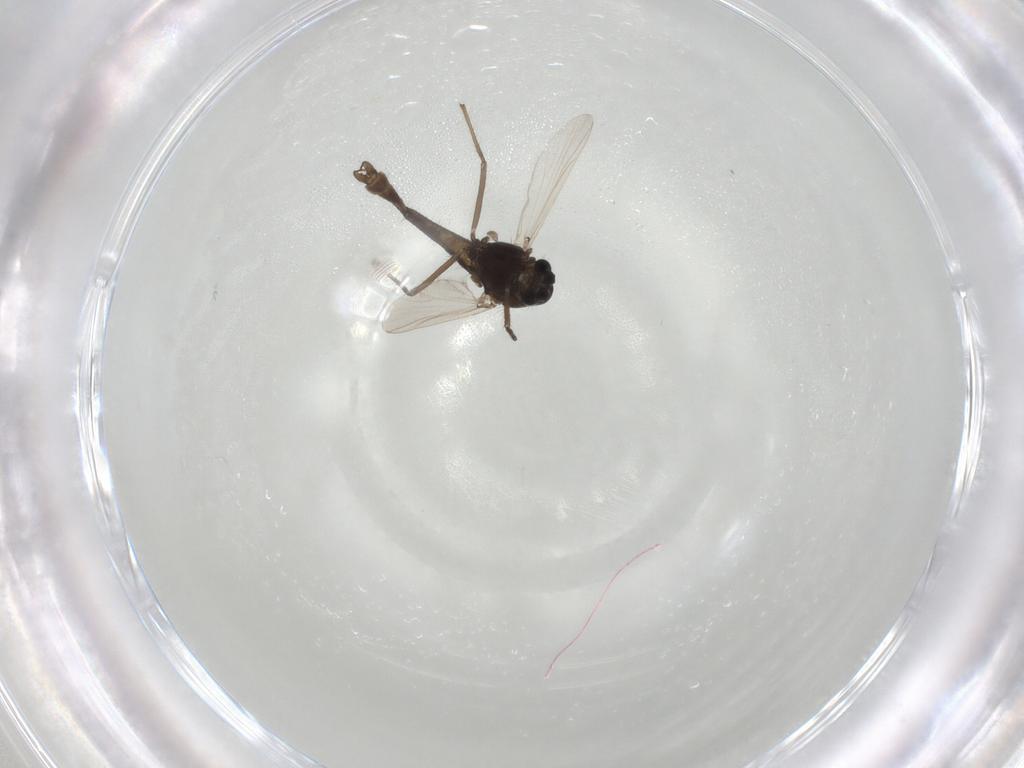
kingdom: Animalia
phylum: Arthropoda
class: Insecta
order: Diptera
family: Chironomidae
